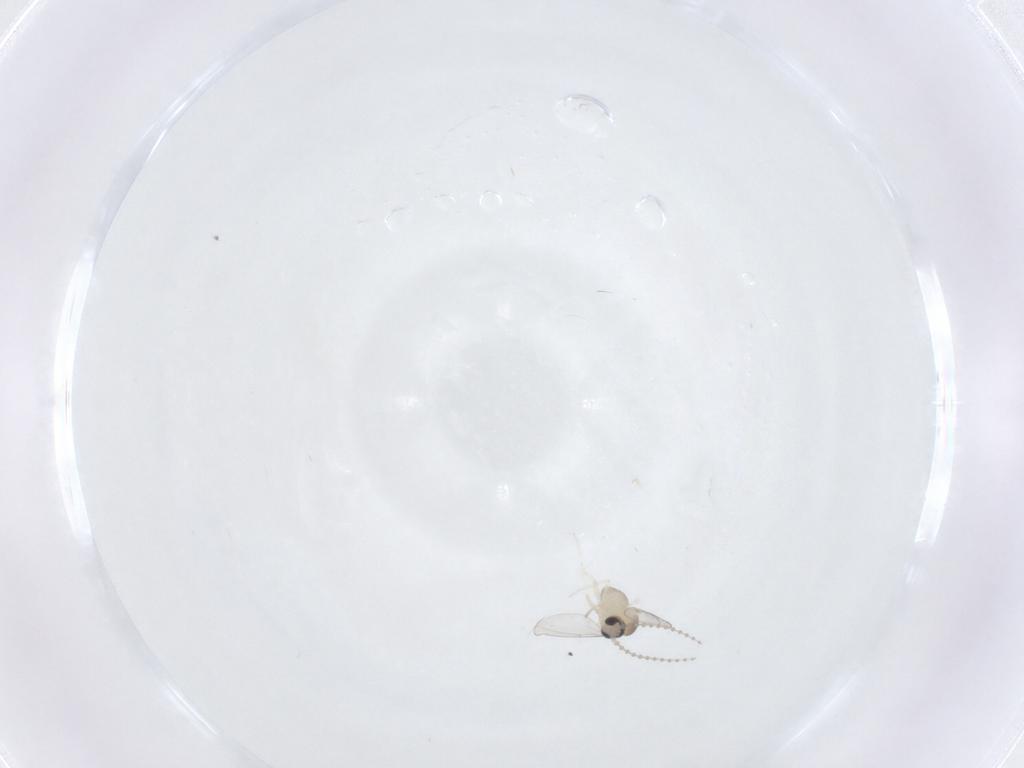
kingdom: Animalia
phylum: Arthropoda
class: Insecta
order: Diptera
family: Cecidomyiidae
